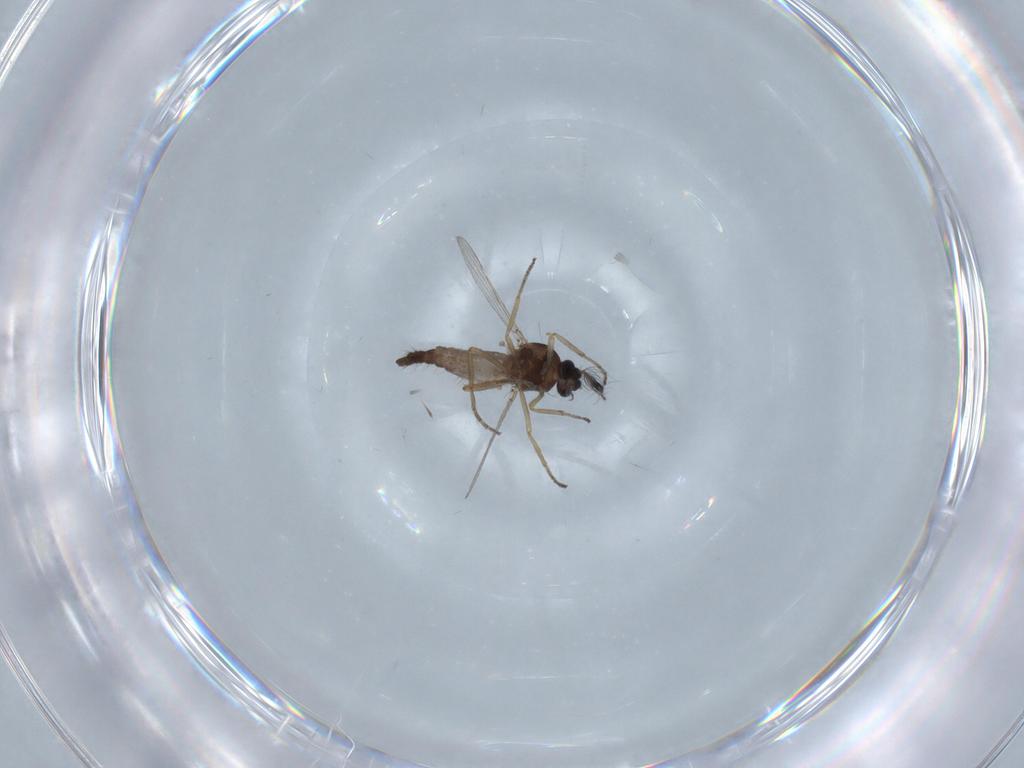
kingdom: Animalia
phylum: Arthropoda
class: Insecta
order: Diptera
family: Ceratopogonidae
